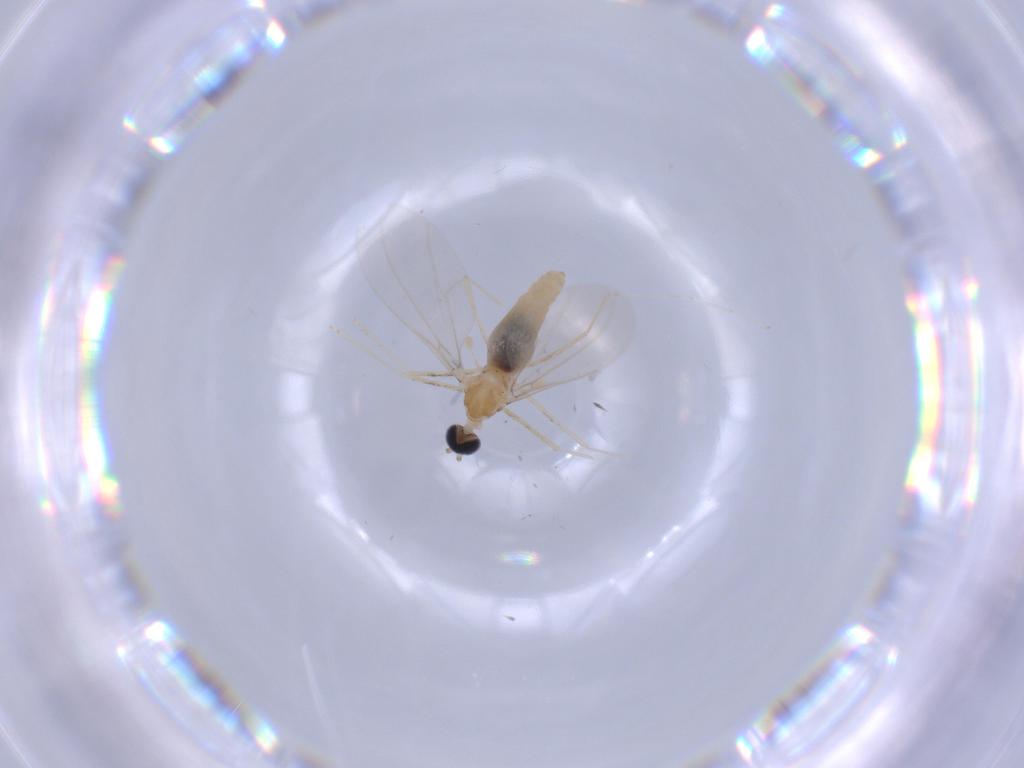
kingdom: Animalia
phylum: Arthropoda
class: Insecta
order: Diptera
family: Cecidomyiidae
